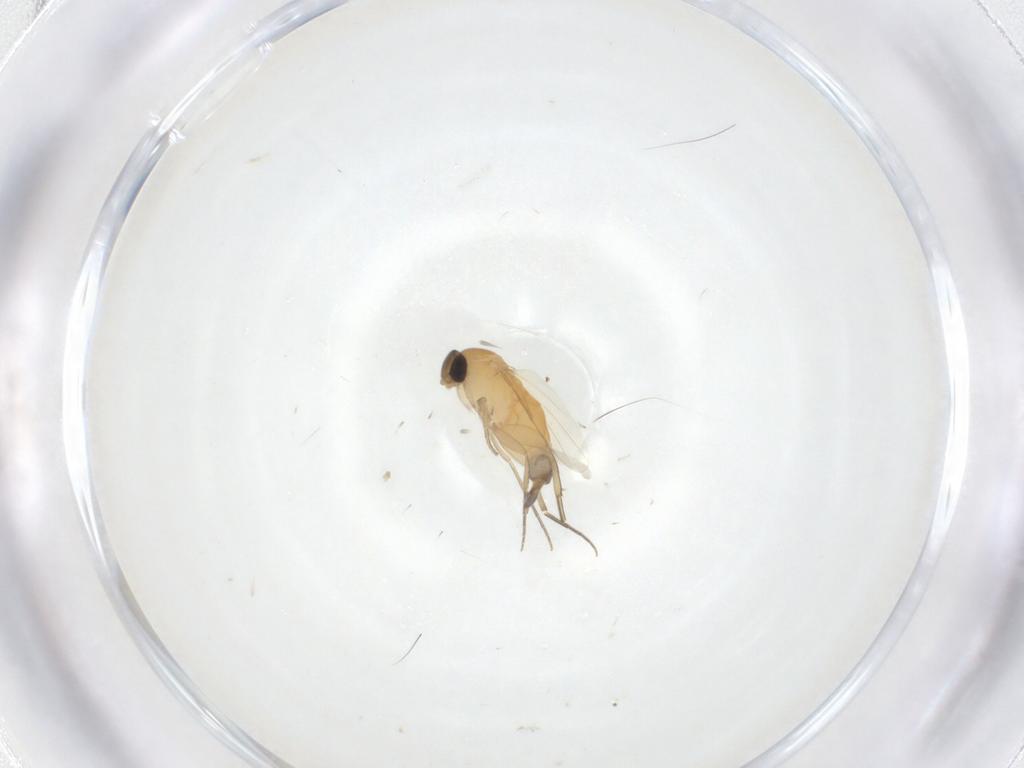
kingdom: Animalia
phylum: Arthropoda
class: Insecta
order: Diptera
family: Phoridae
